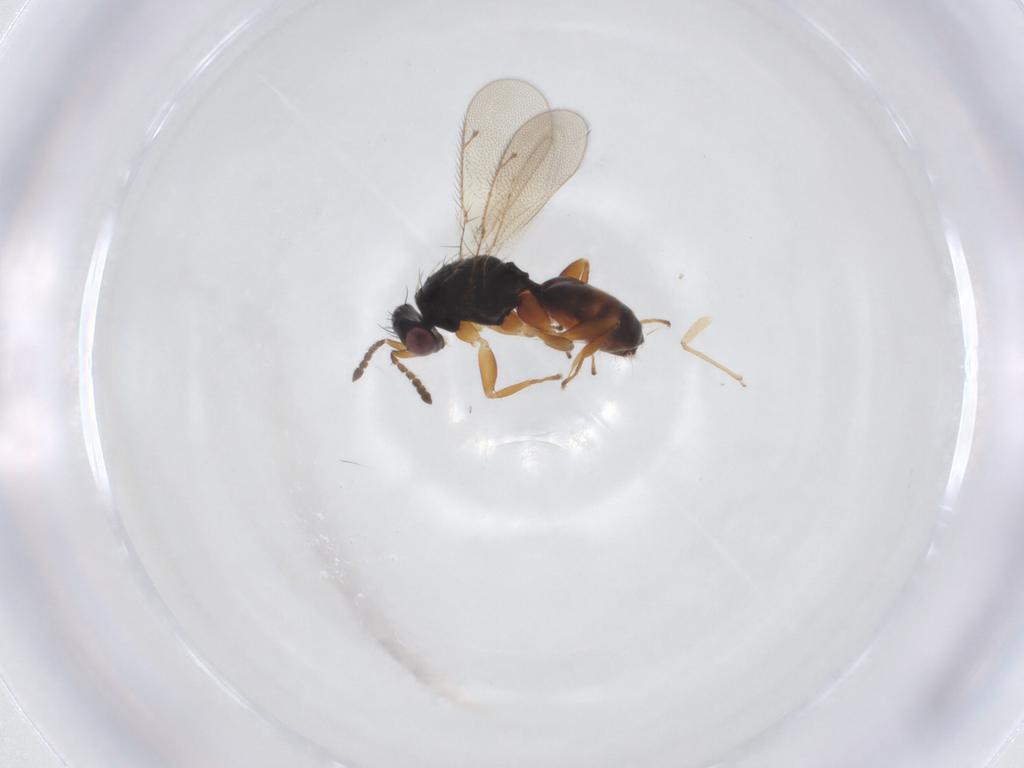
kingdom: Animalia
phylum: Arthropoda
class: Insecta
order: Hymenoptera
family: Eulophidae
